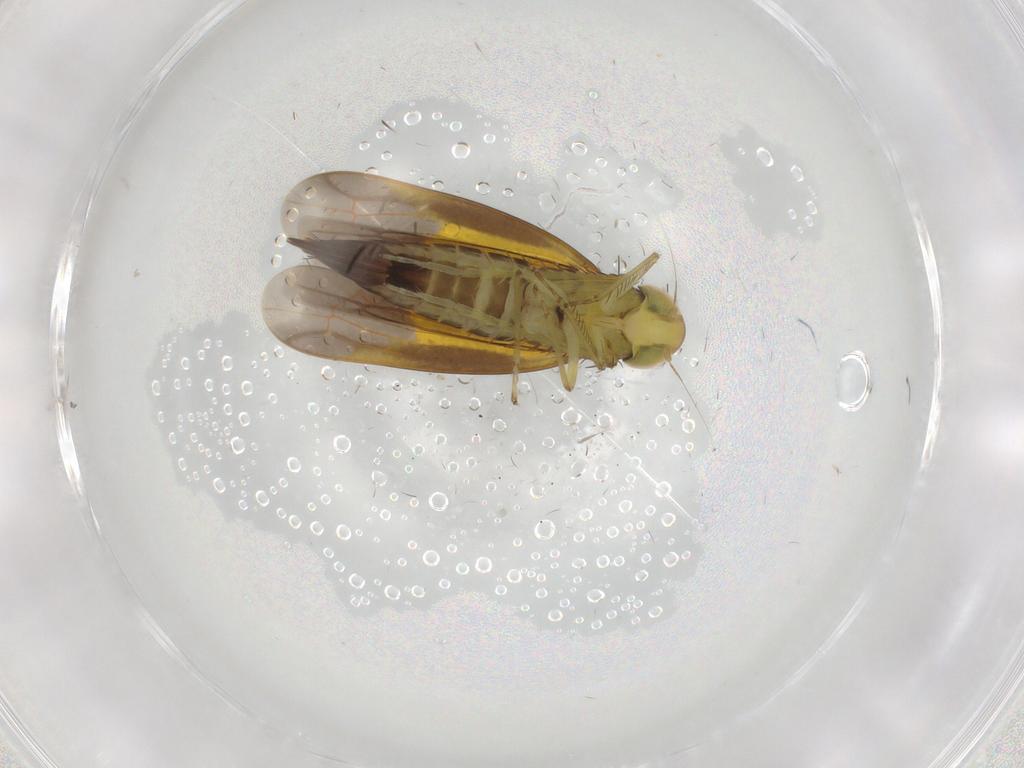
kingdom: Animalia
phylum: Arthropoda
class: Insecta
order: Hemiptera
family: Cicadellidae
